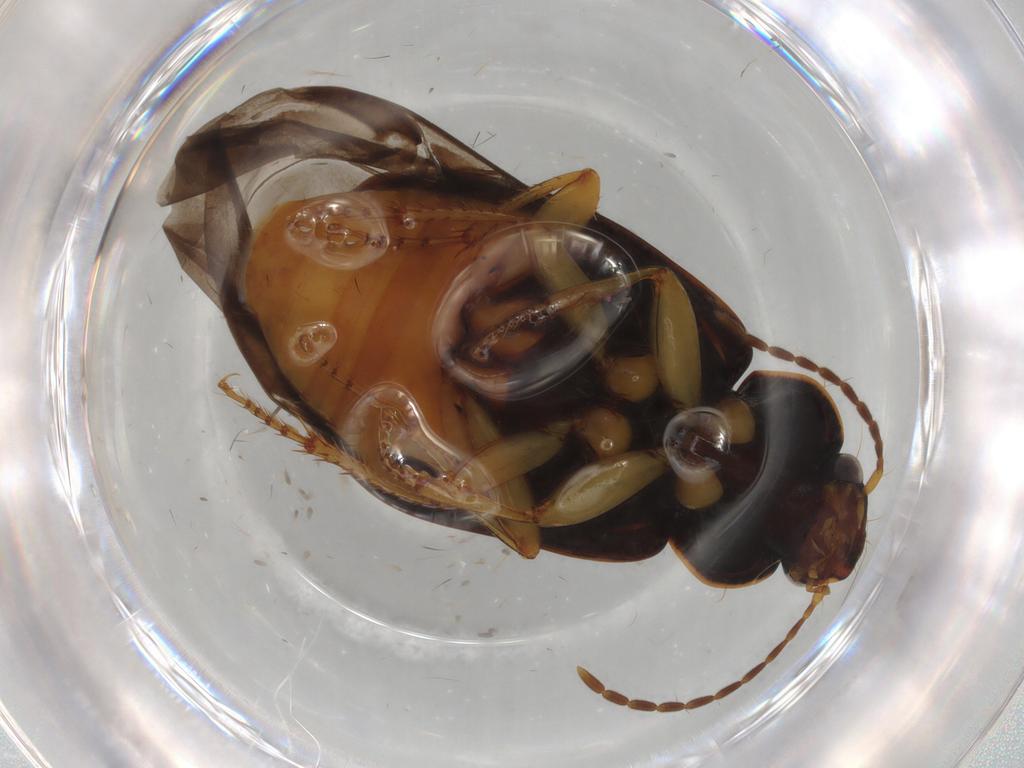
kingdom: Animalia
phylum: Arthropoda
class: Insecta
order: Coleoptera
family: Carabidae
